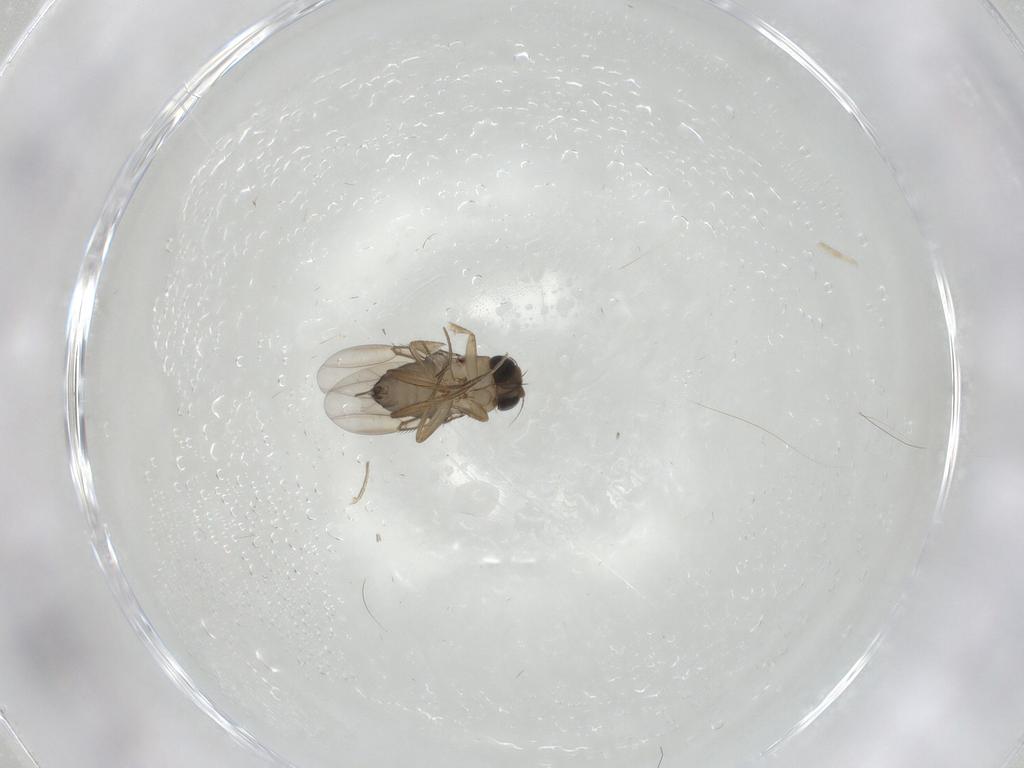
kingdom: Animalia
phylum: Arthropoda
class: Insecta
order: Diptera
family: Phoridae
